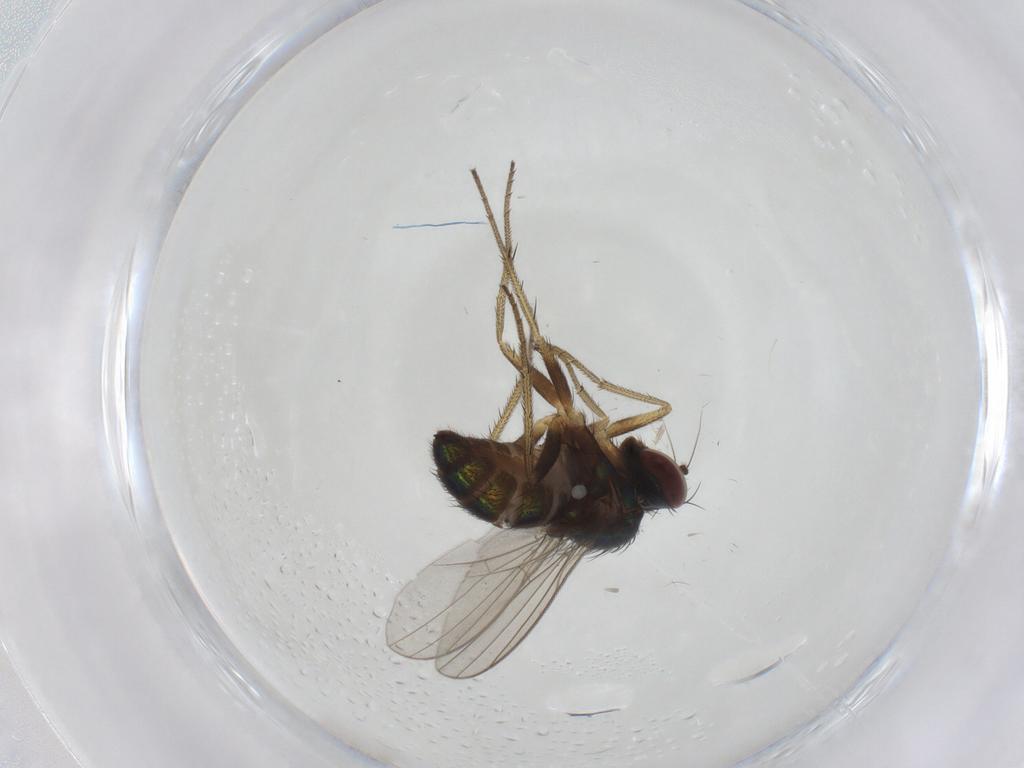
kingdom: Animalia
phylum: Arthropoda
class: Insecta
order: Diptera
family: Dolichopodidae
